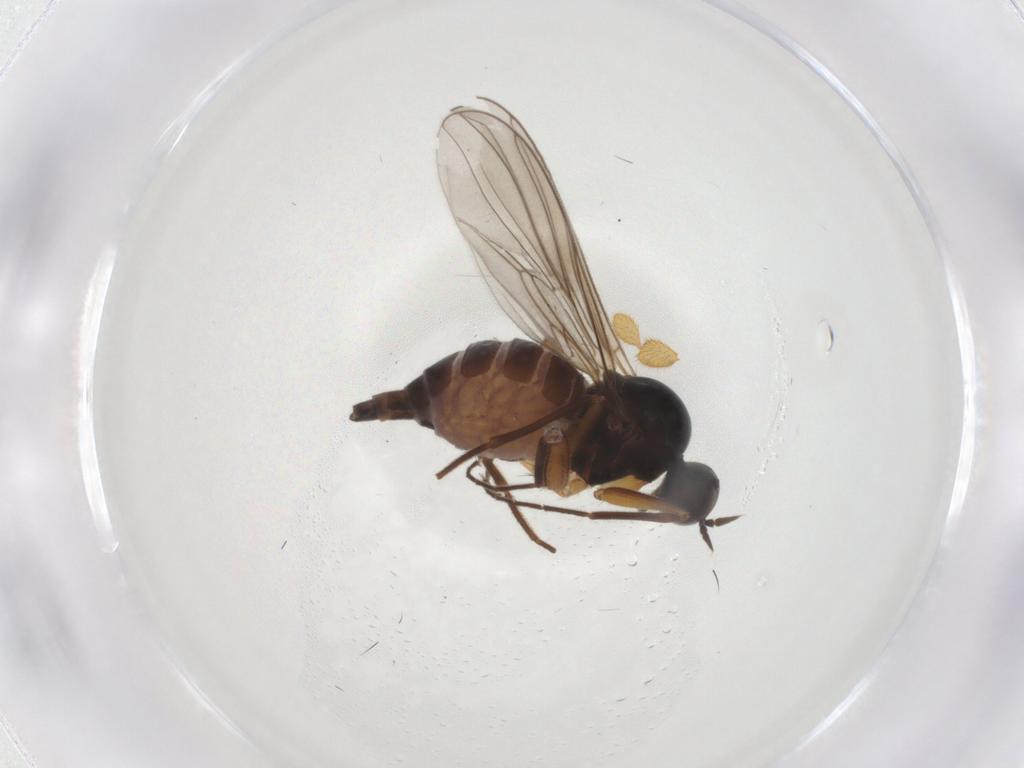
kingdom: Animalia
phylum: Arthropoda
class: Insecta
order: Diptera
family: Hybotidae
